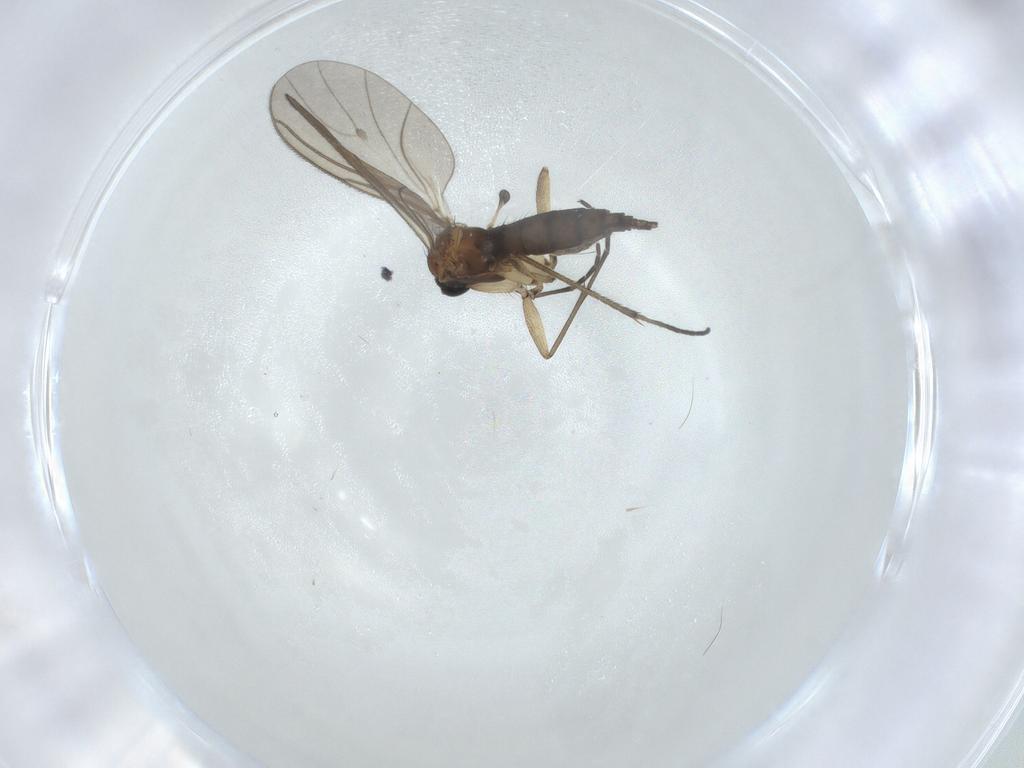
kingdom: Animalia
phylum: Arthropoda
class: Insecta
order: Diptera
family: Sciaridae
